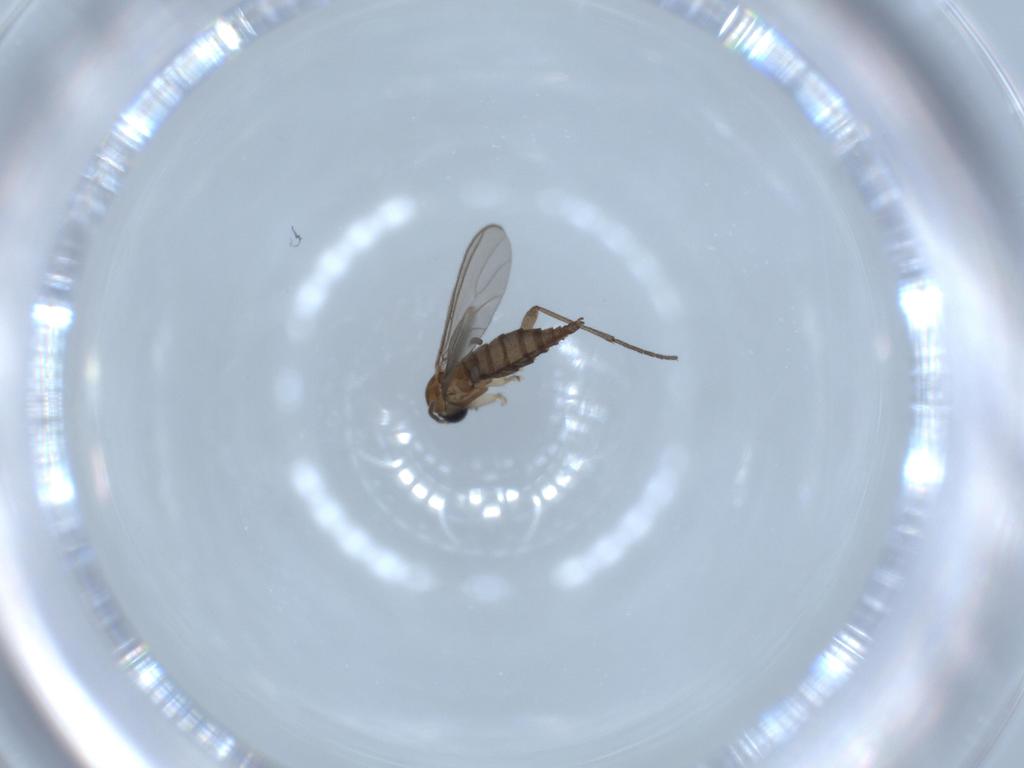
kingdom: Animalia
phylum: Arthropoda
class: Insecta
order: Diptera
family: Sciaridae
